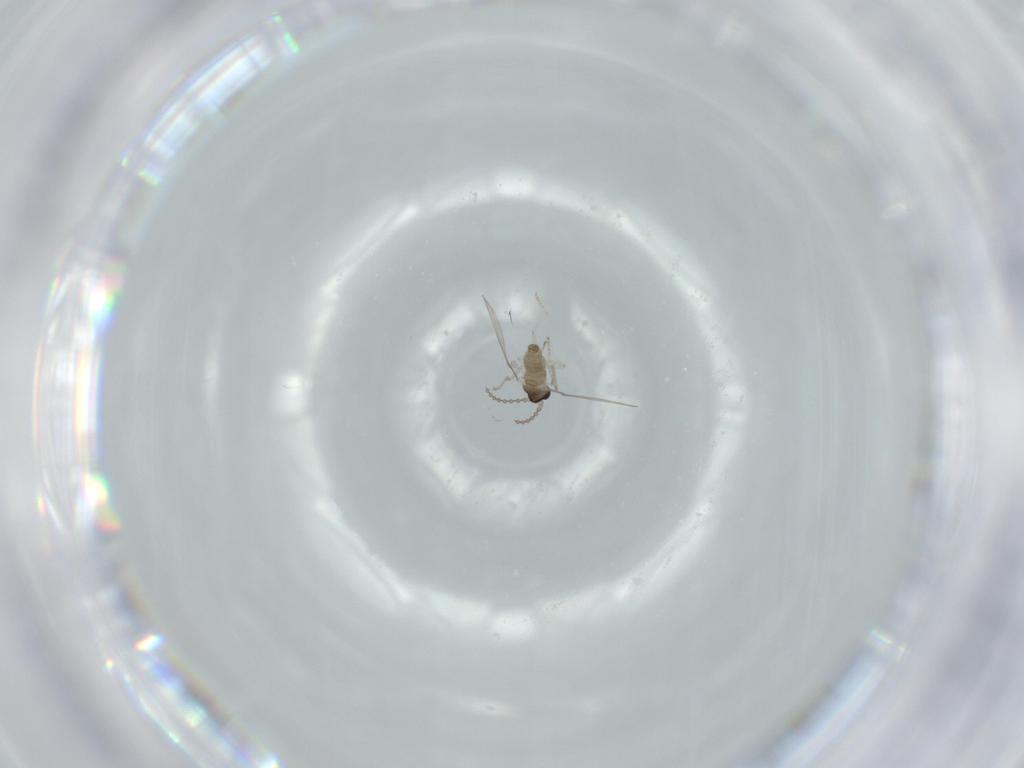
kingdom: Animalia
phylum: Arthropoda
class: Insecta
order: Diptera
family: Cecidomyiidae
